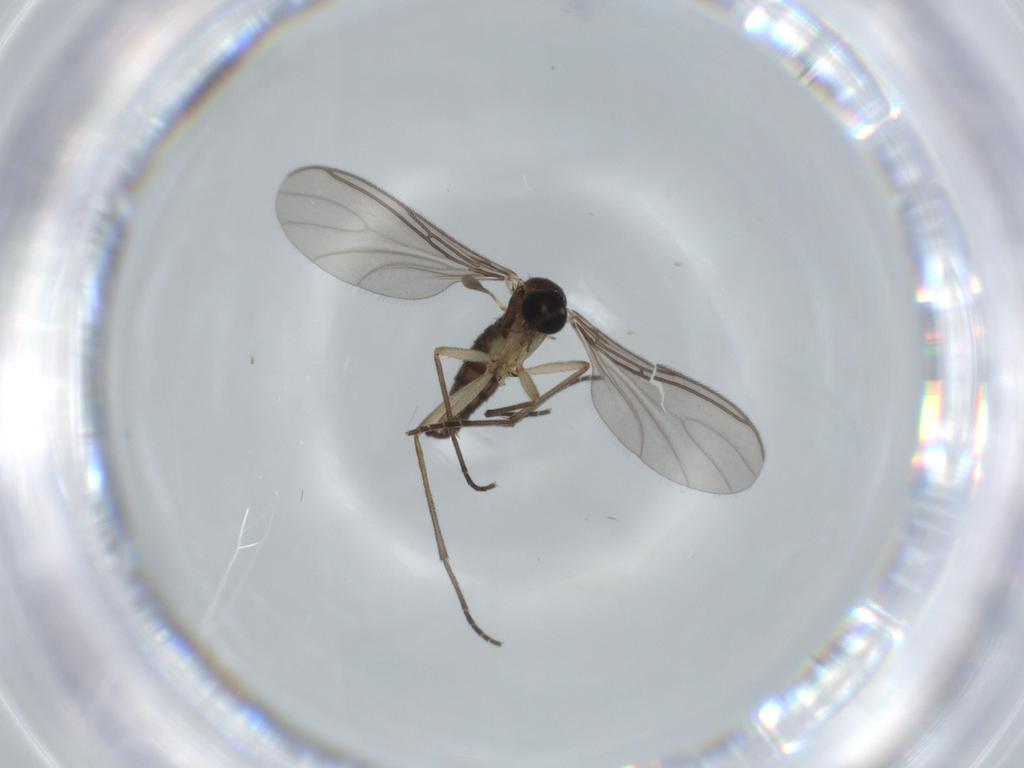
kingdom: Animalia
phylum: Arthropoda
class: Insecta
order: Diptera
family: Sciaridae
